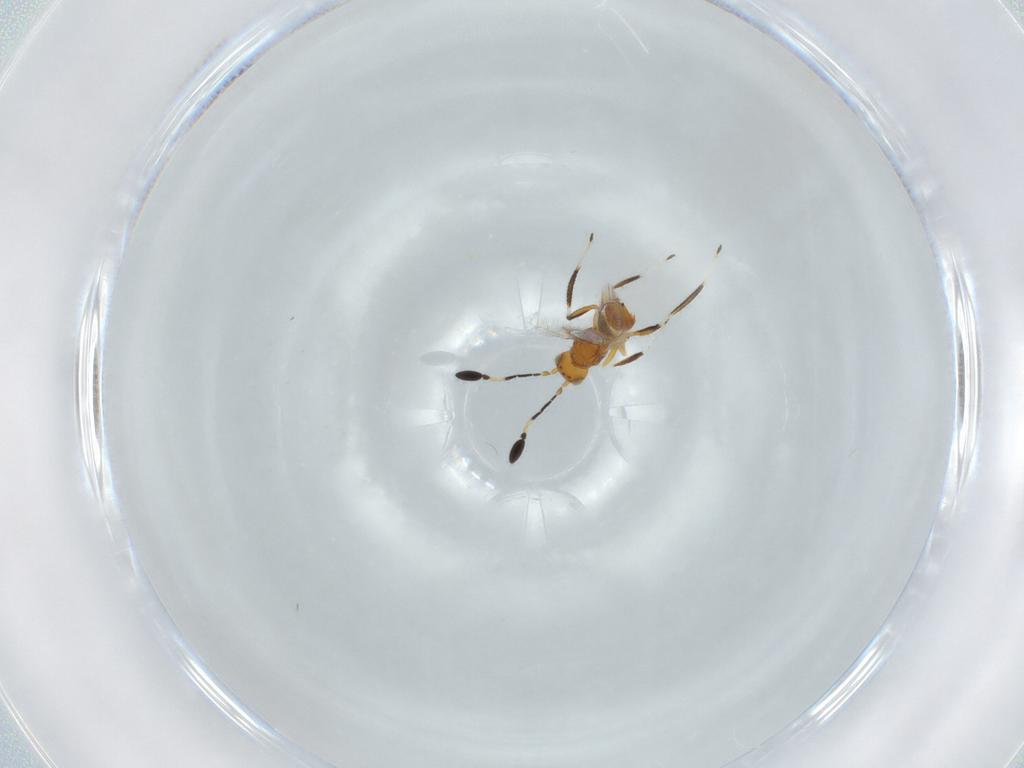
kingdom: Animalia
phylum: Arthropoda
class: Insecta
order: Hymenoptera
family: Mymaridae
